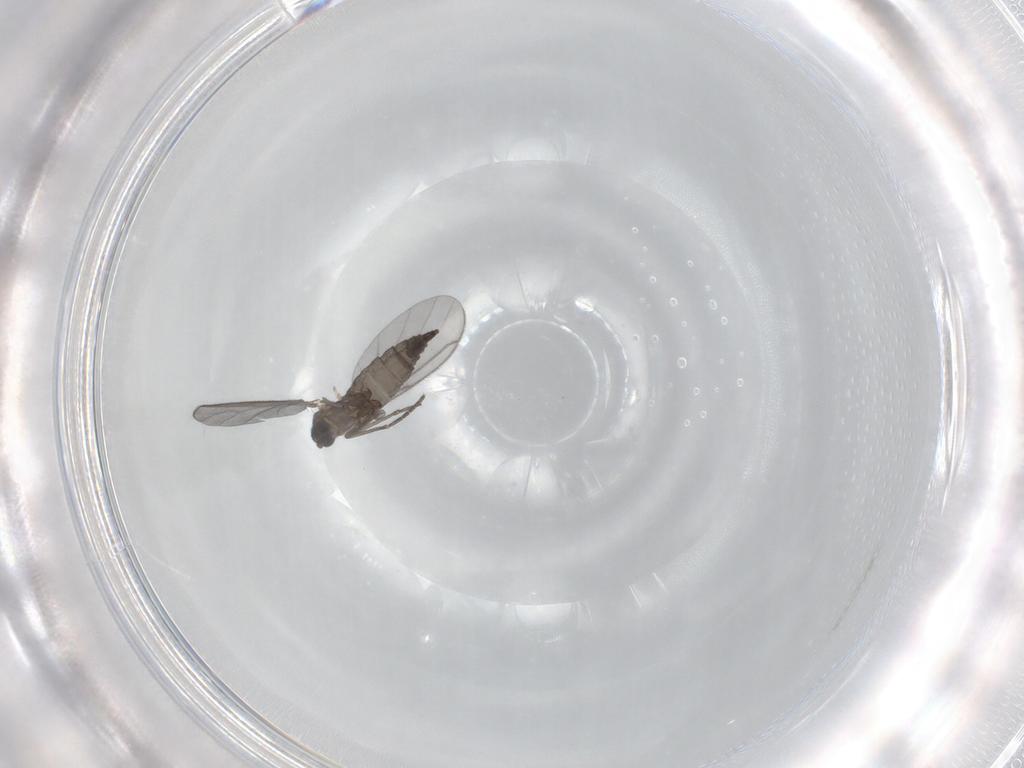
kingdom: Animalia
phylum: Arthropoda
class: Insecta
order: Diptera
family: Sciaridae
